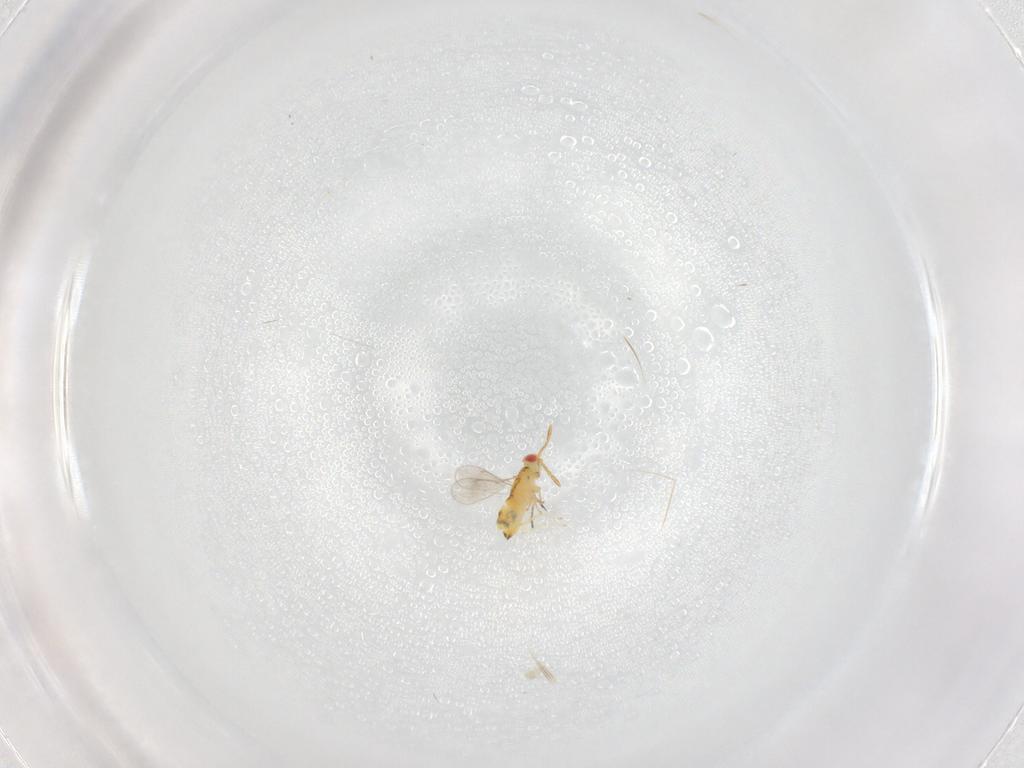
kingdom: Animalia
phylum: Arthropoda
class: Insecta
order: Hymenoptera
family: Aphelinidae
